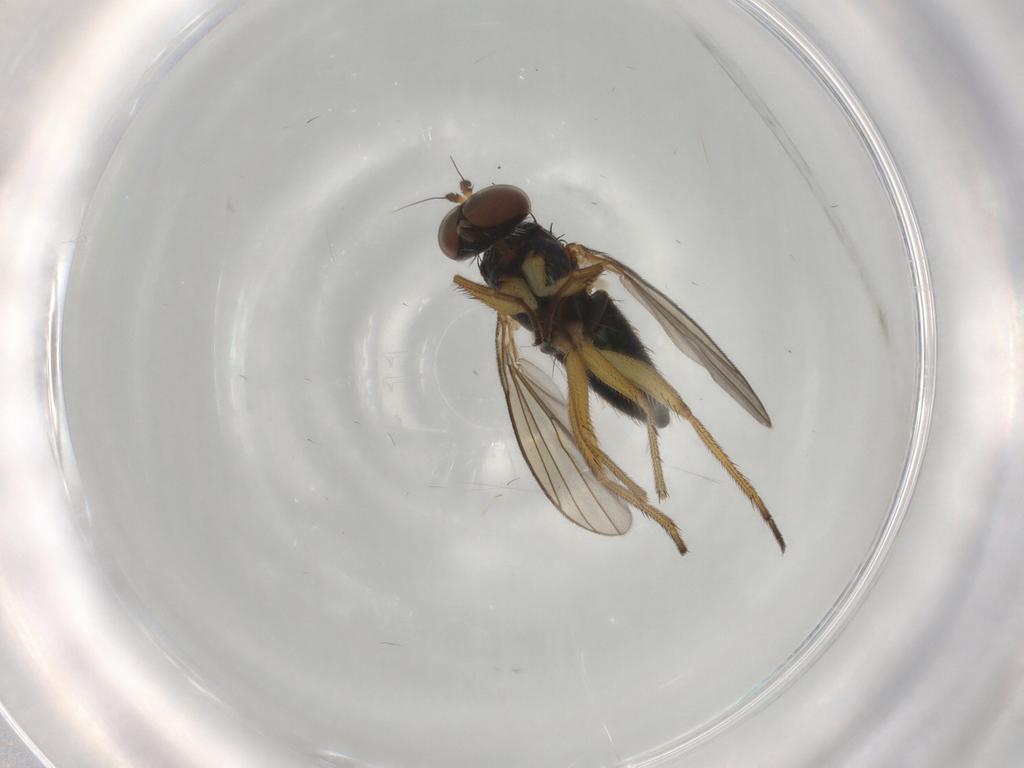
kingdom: Animalia
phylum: Arthropoda
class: Insecta
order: Diptera
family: Dolichopodidae
